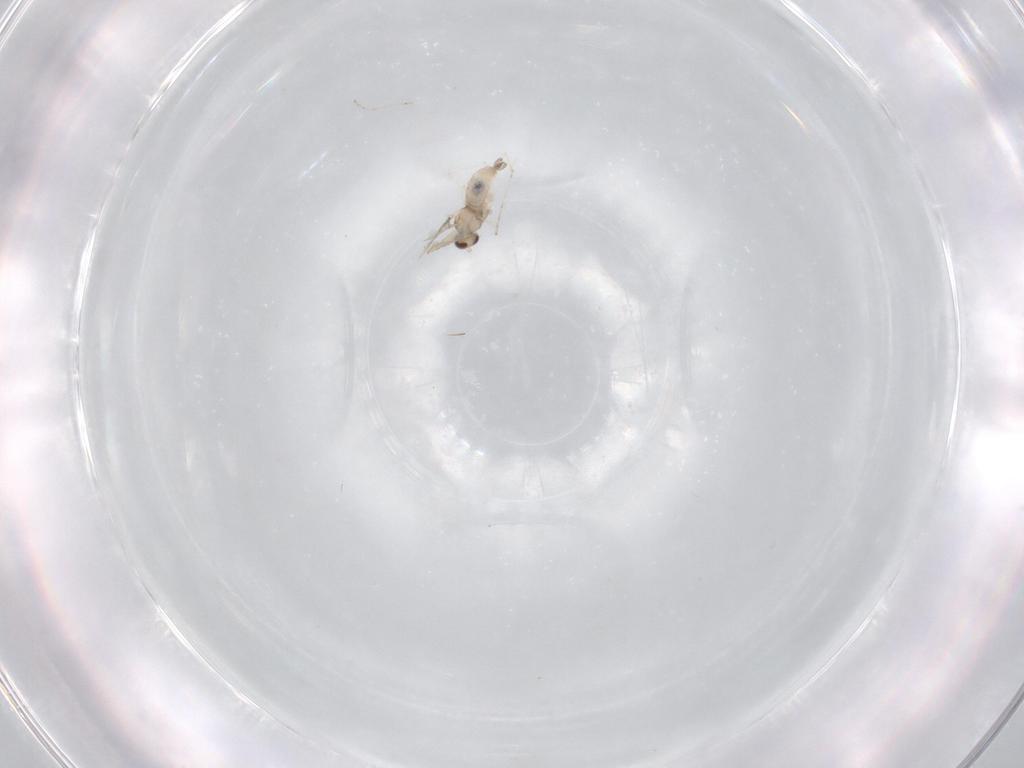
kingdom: Animalia
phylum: Arthropoda
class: Insecta
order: Diptera
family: Cecidomyiidae
